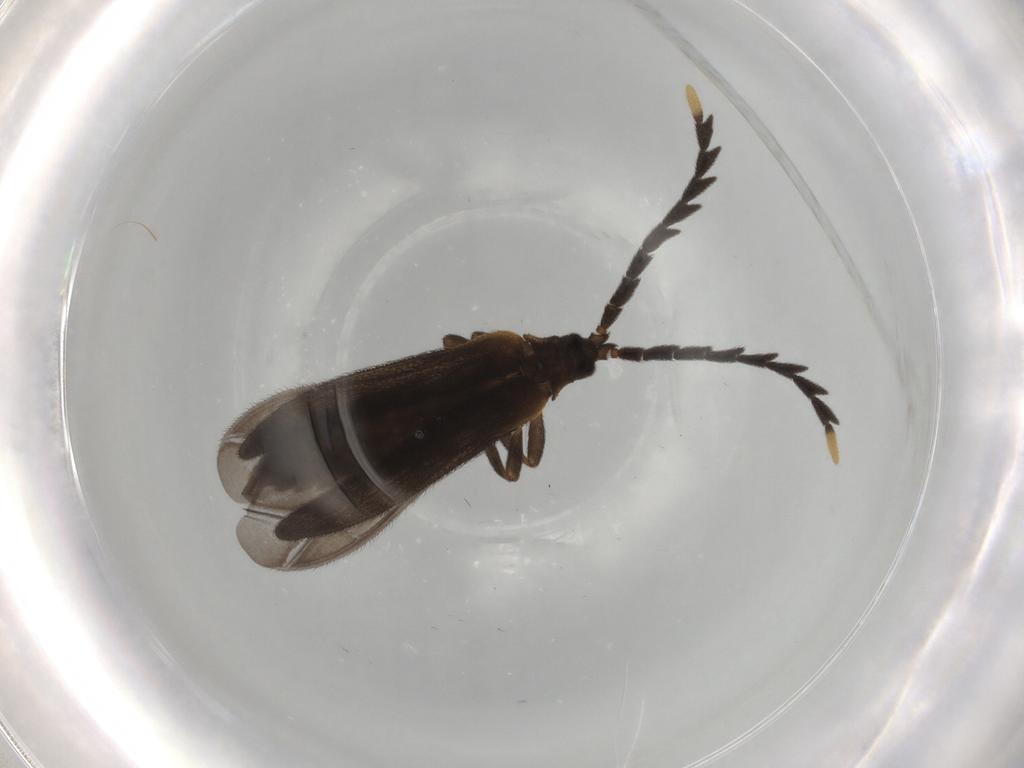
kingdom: Animalia
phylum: Arthropoda
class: Insecta
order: Coleoptera
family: Lycidae
